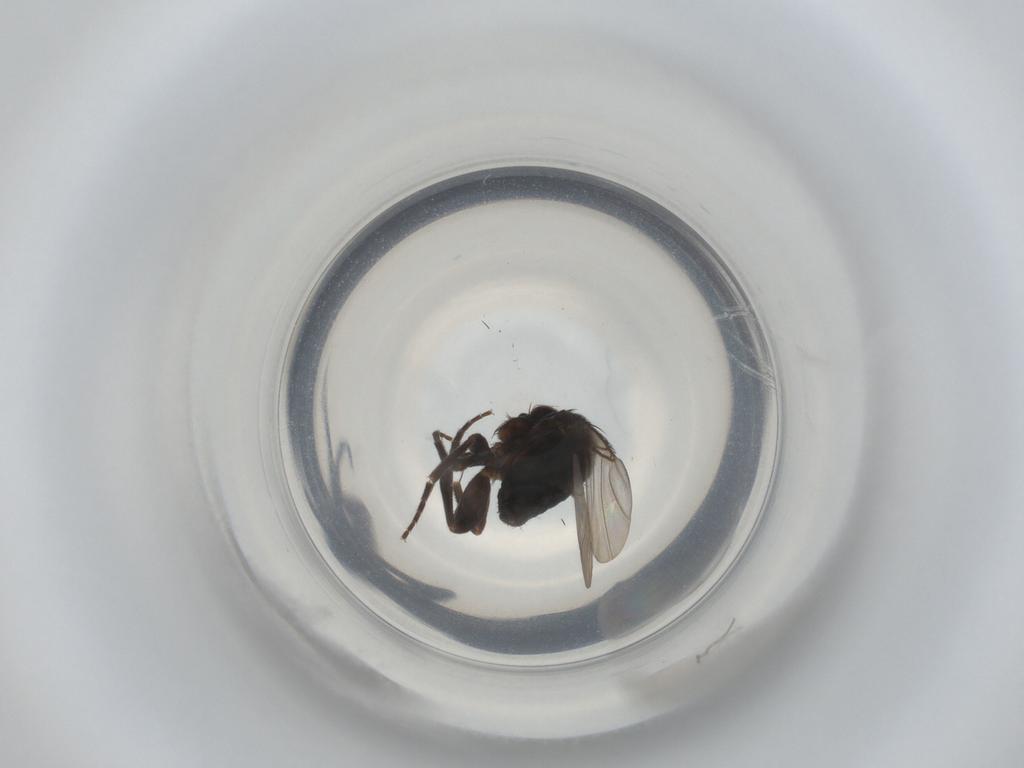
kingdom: Animalia
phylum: Arthropoda
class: Insecta
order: Diptera
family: Phoridae
